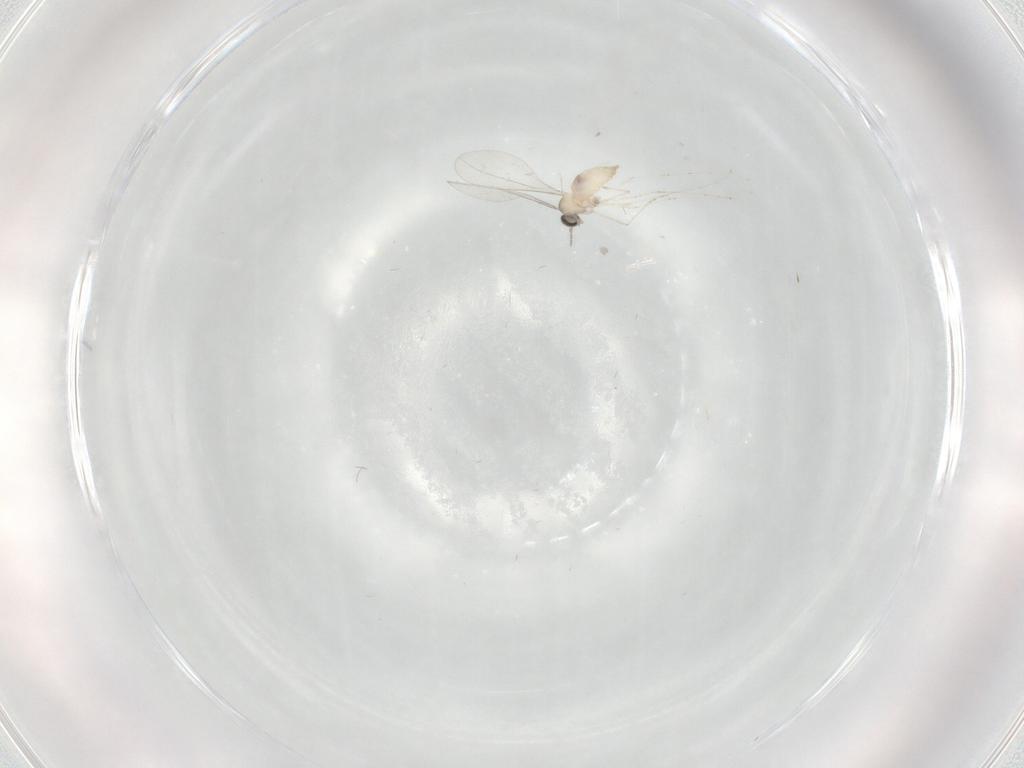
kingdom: Animalia
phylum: Arthropoda
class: Insecta
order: Diptera
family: Cecidomyiidae
